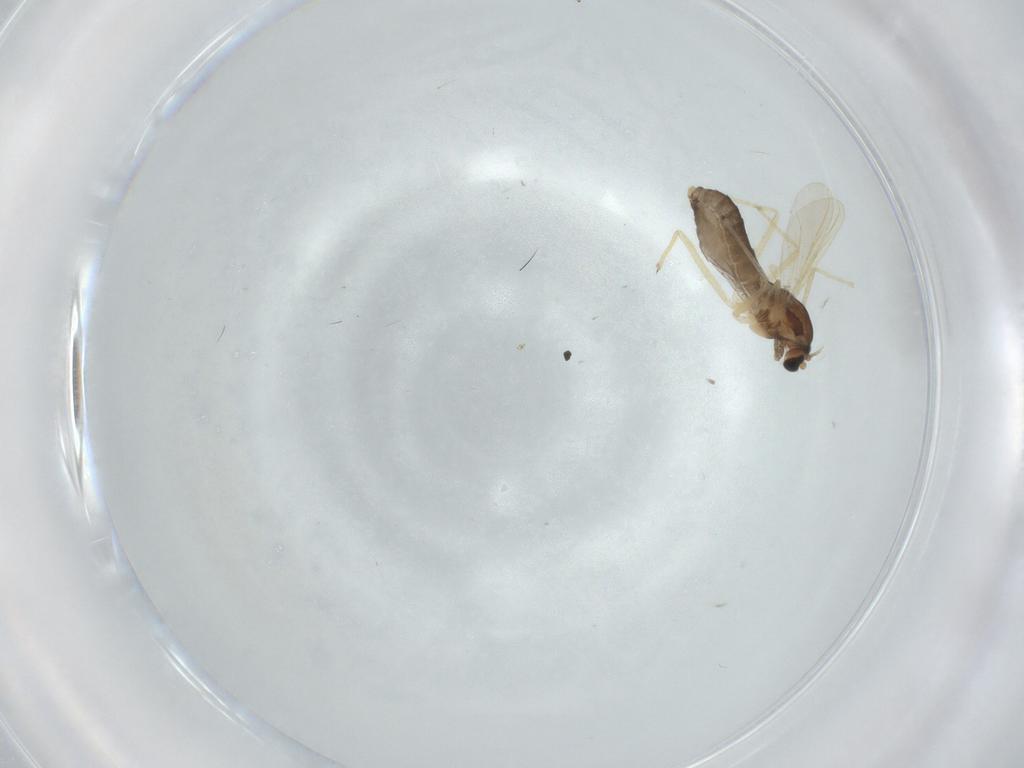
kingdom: Animalia
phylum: Arthropoda
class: Insecta
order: Diptera
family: Chironomidae
